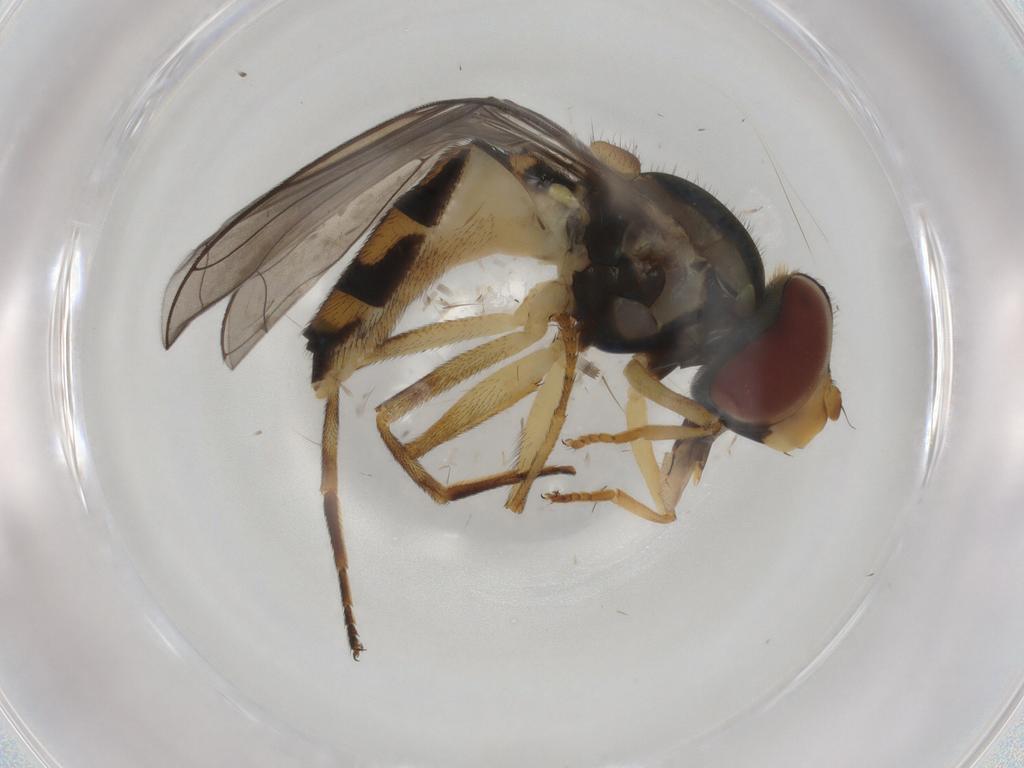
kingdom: Animalia
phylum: Arthropoda
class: Insecta
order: Diptera
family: Syrphidae
